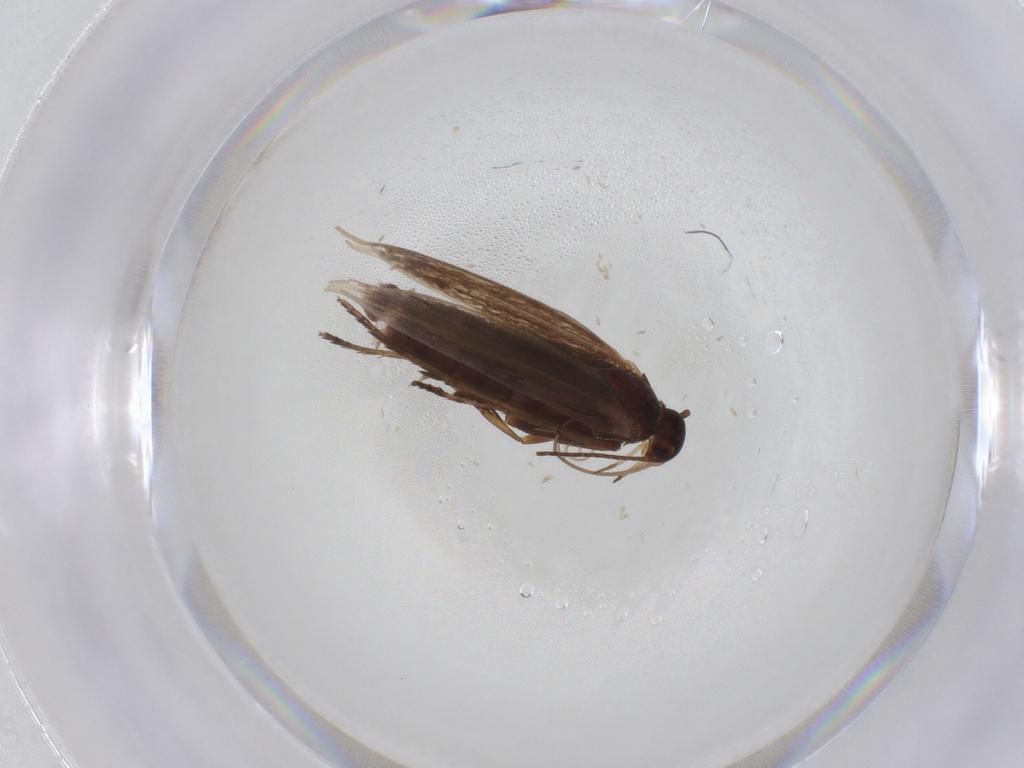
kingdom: Animalia
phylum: Arthropoda
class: Insecta
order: Lepidoptera
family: Scythrididae
